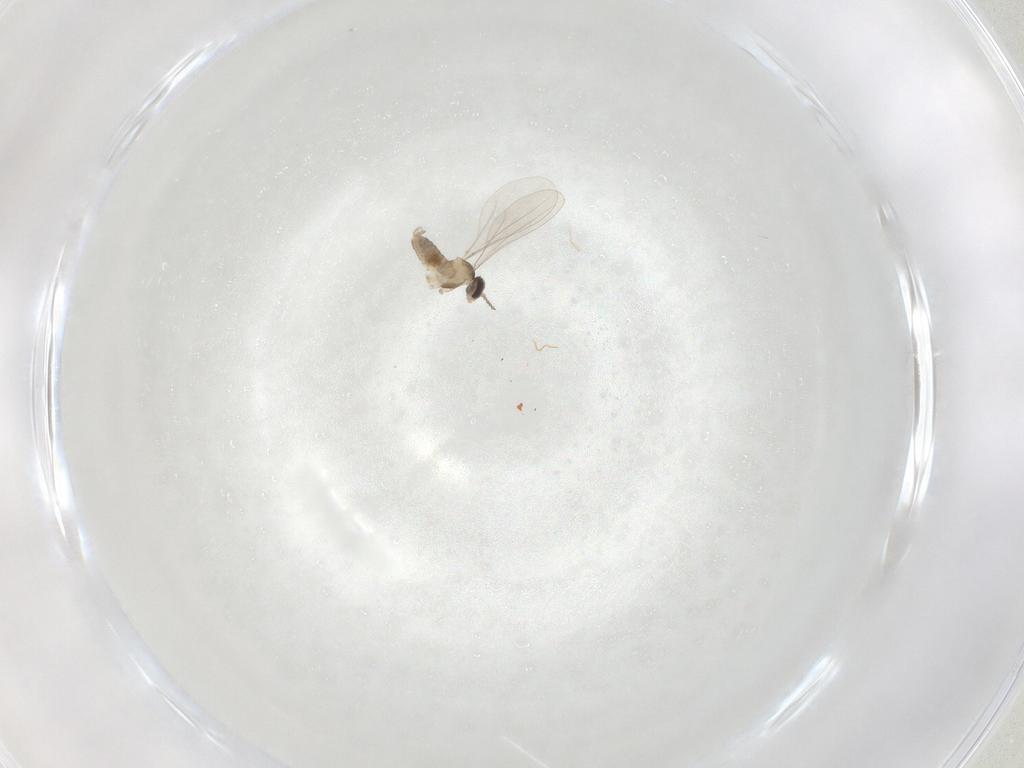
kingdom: Animalia
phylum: Arthropoda
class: Insecta
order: Diptera
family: Cecidomyiidae
